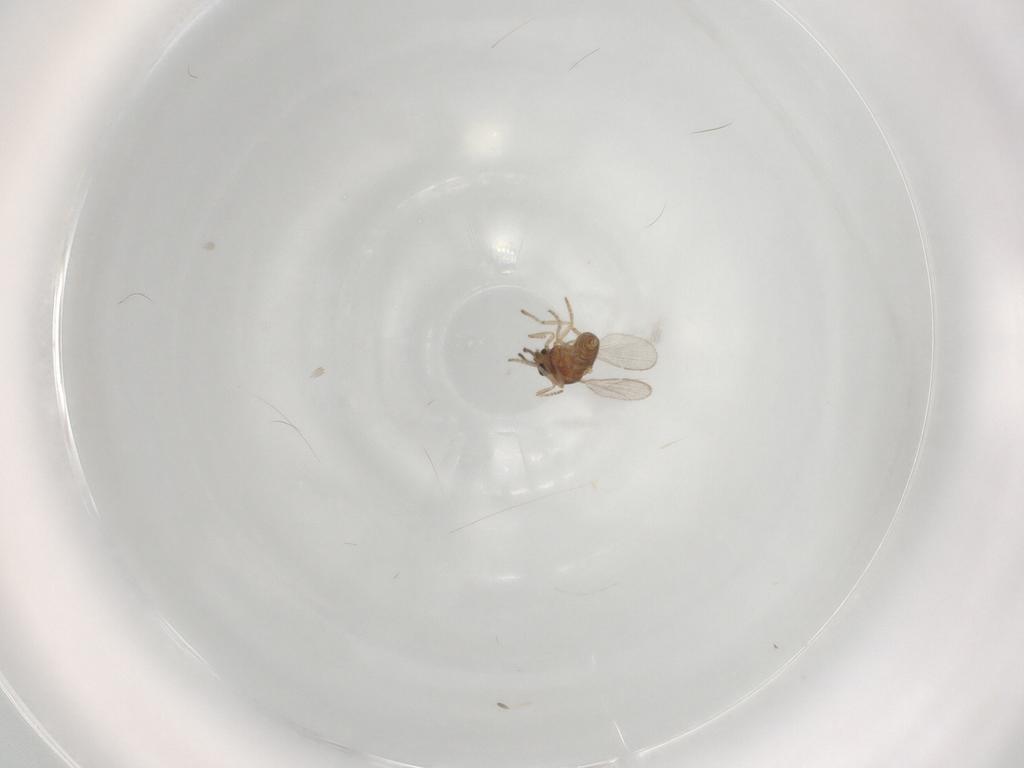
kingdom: Animalia
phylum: Arthropoda
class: Insecta
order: Diptera
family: Ceratopogonidae
